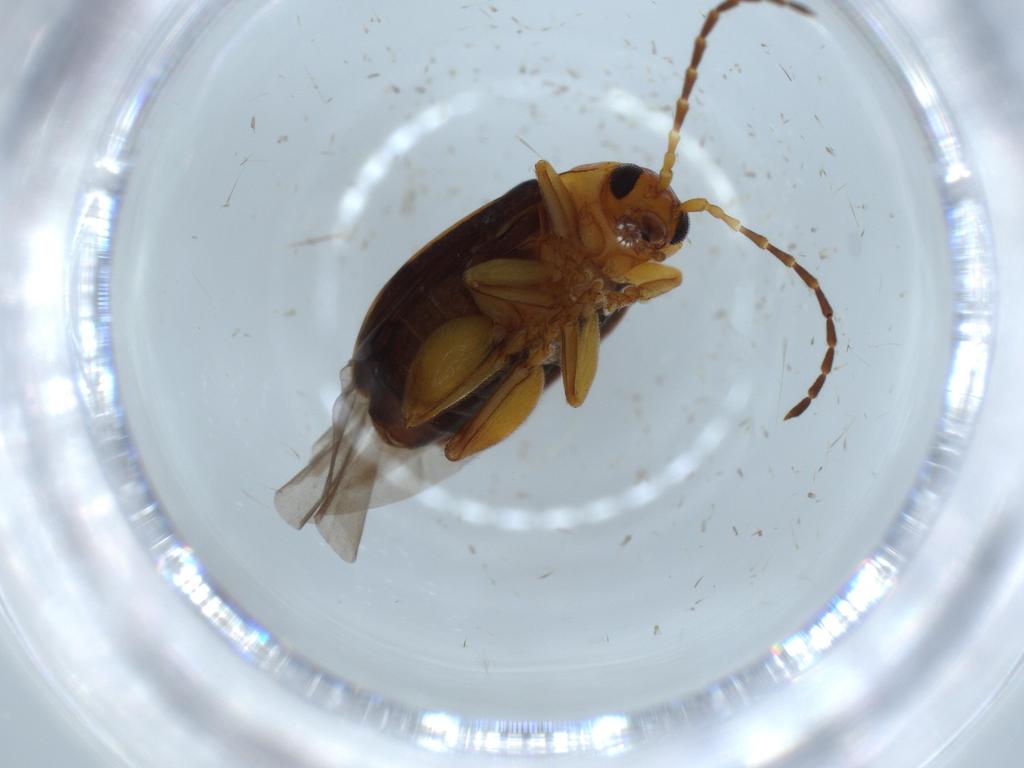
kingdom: Animalia
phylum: Arthropoda
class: Insecta
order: Coleoptera
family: Chrysomelidae
